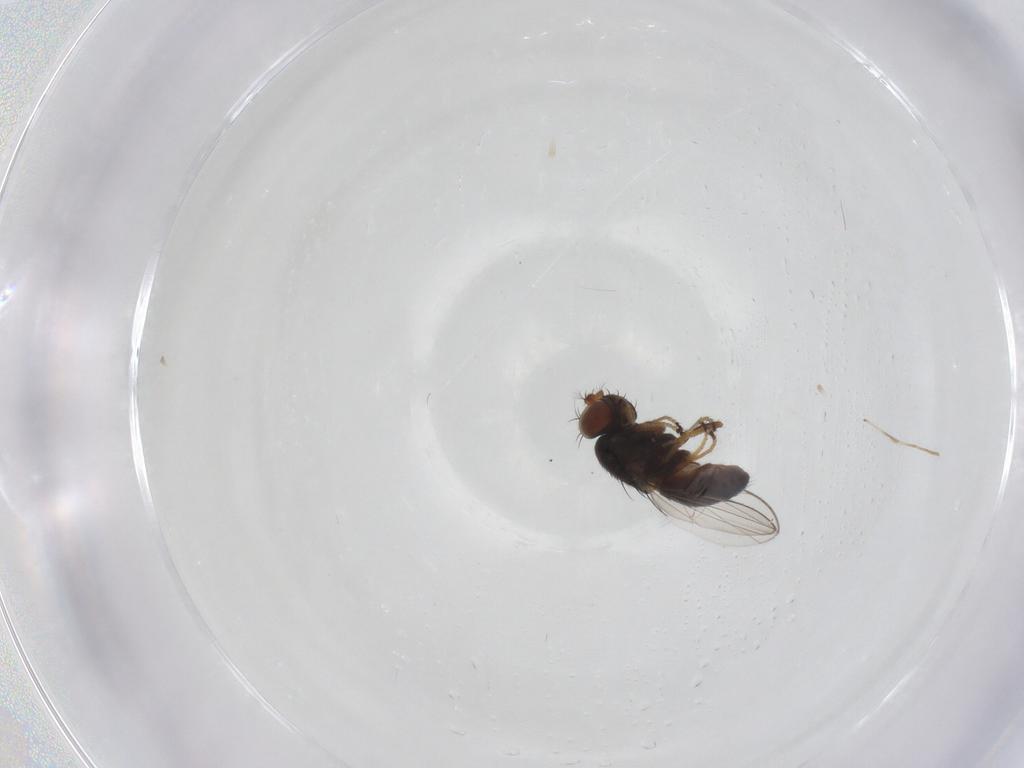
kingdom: Animalia
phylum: Arthropoda
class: Insecta
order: Diptera
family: Ephydridae
